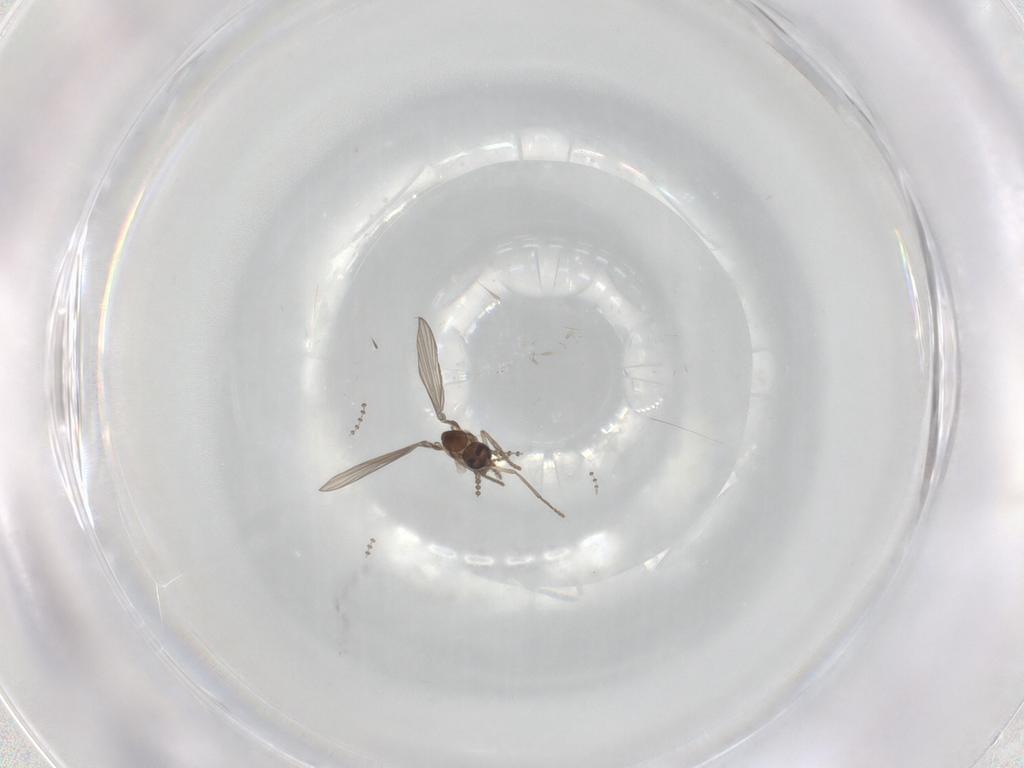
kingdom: Animalia
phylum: Arthropoda
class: Insecta
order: Diptera
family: Psychodidae
